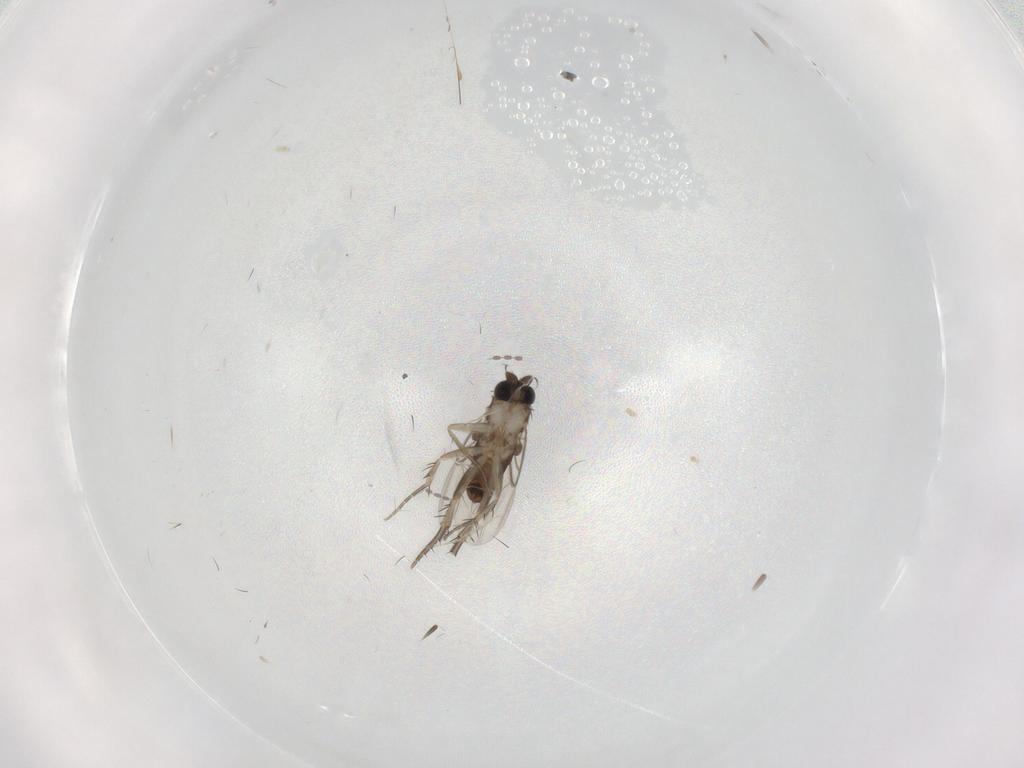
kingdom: Animalia
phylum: Arthropoda
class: Insecta
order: Diptera
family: Phoridae
